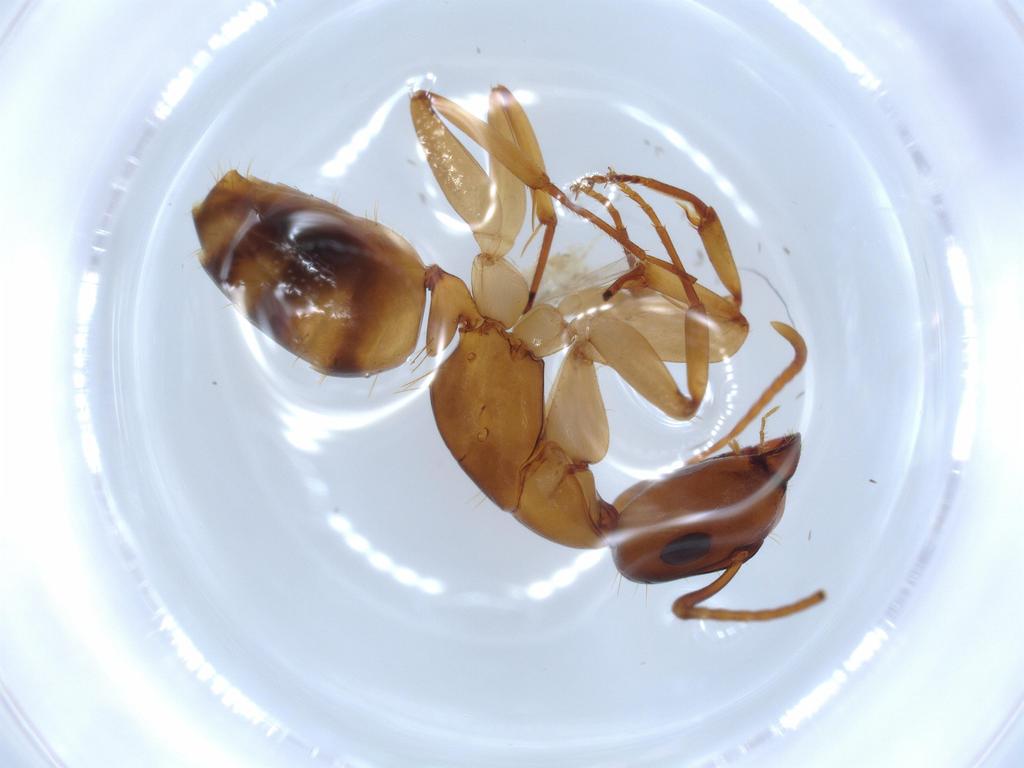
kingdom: Animalia
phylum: Arthropoda
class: Insecta
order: Hymenoptera
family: Formicidae
